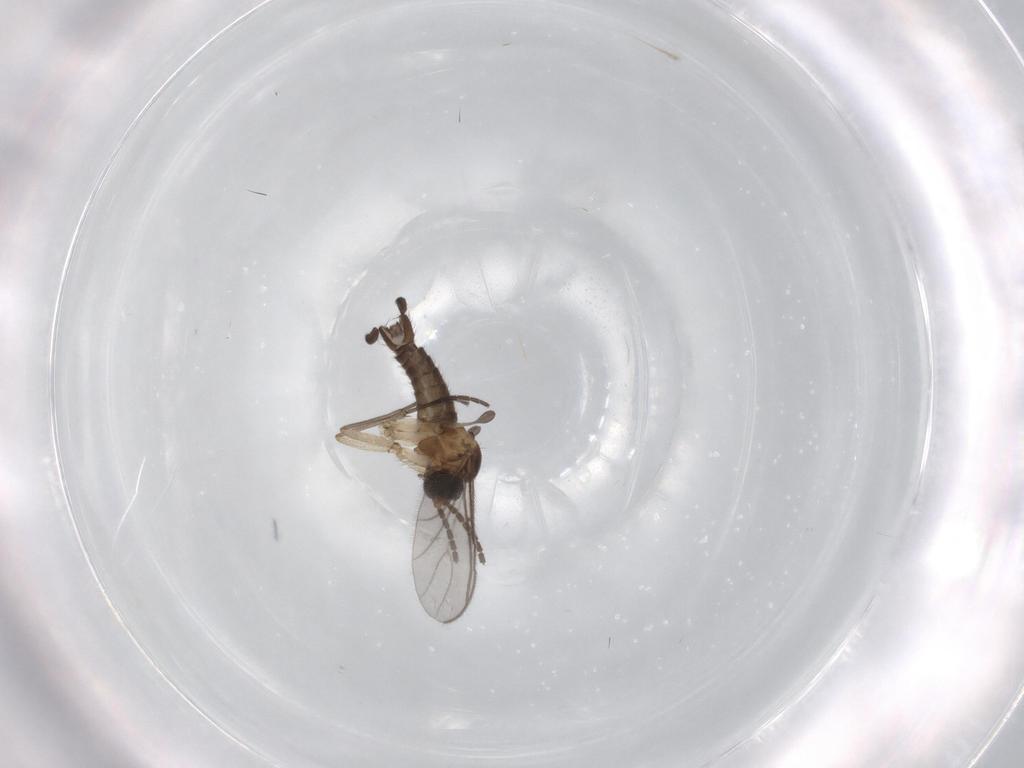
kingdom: Animalia
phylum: Arthropoda
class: Insecta
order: Diptera
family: Sciaridae
